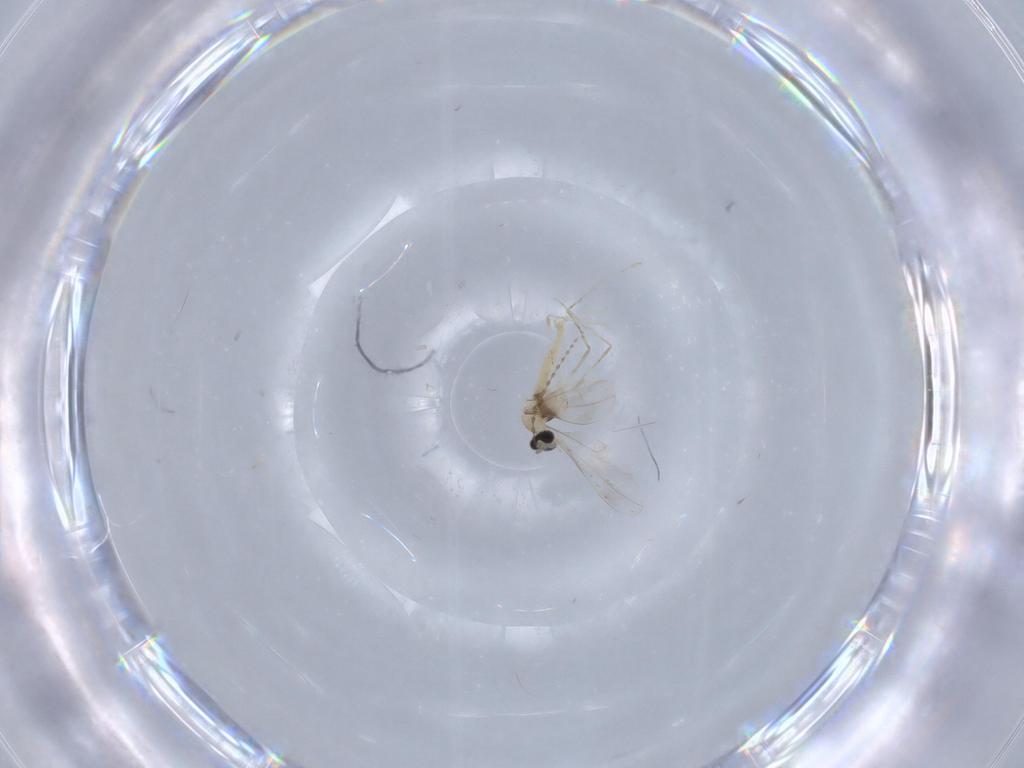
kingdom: Animalia
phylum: Arthropoda
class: Insecta
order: Diptera
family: Cecidomyiidae
